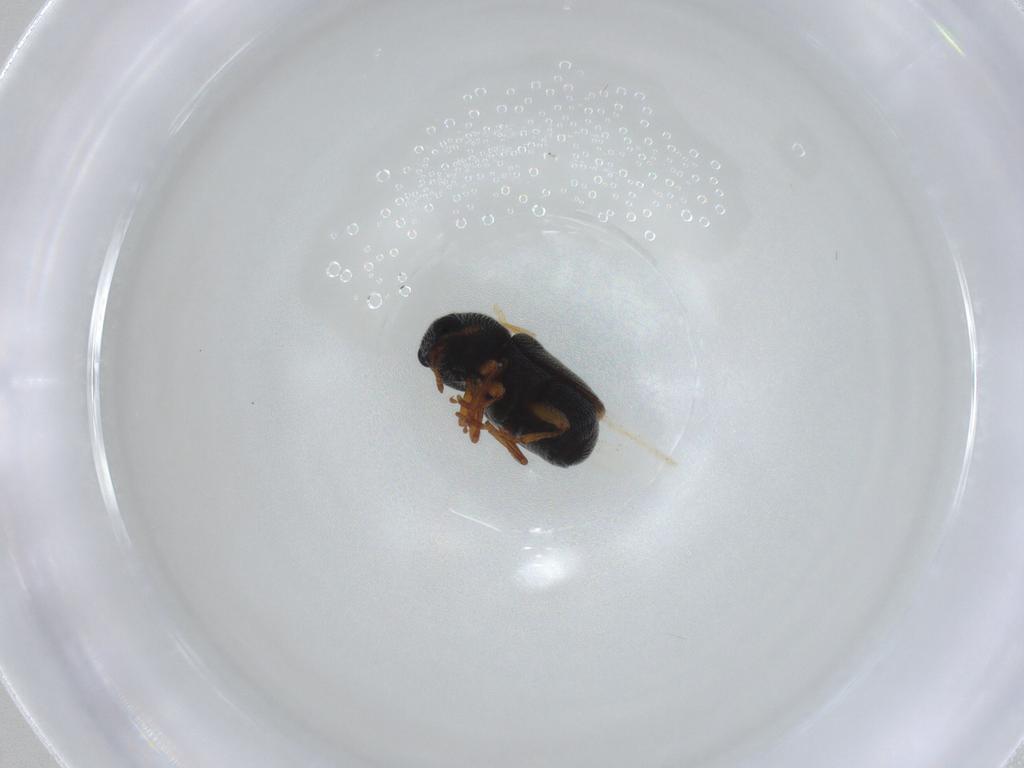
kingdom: Animalia
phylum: Arthropoda
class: Insecta
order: Coleoptera
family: Anthribidae
